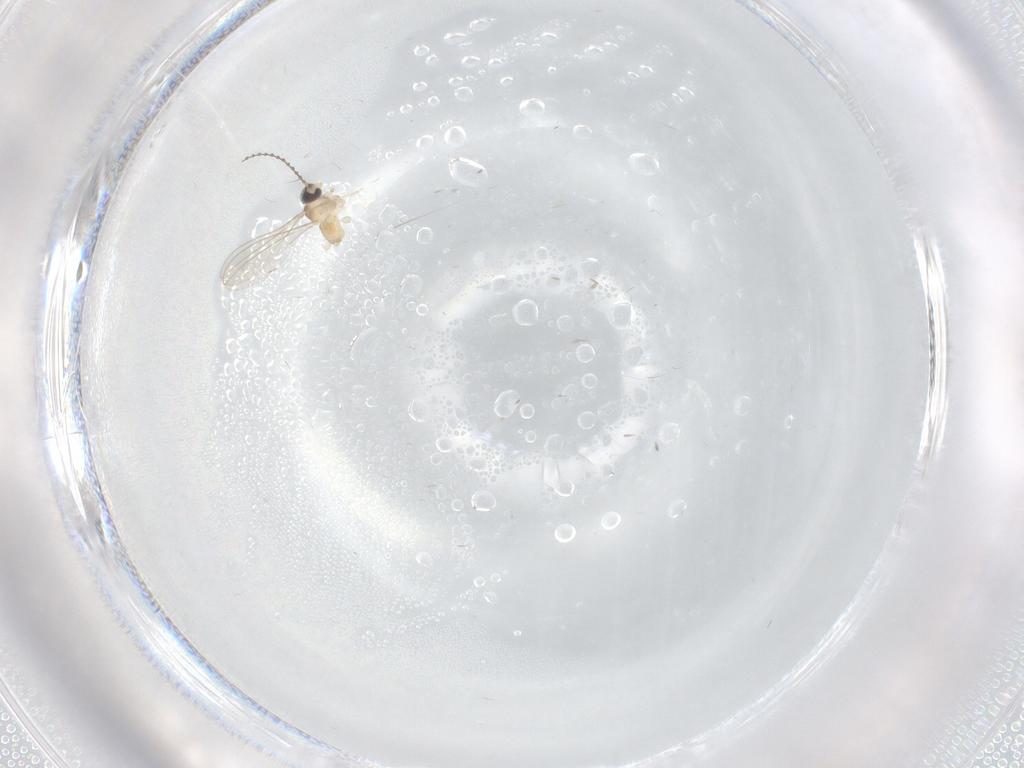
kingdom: Animalia
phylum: Arthropoda
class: Insecta
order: Diptera
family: Cecidomyiidae
